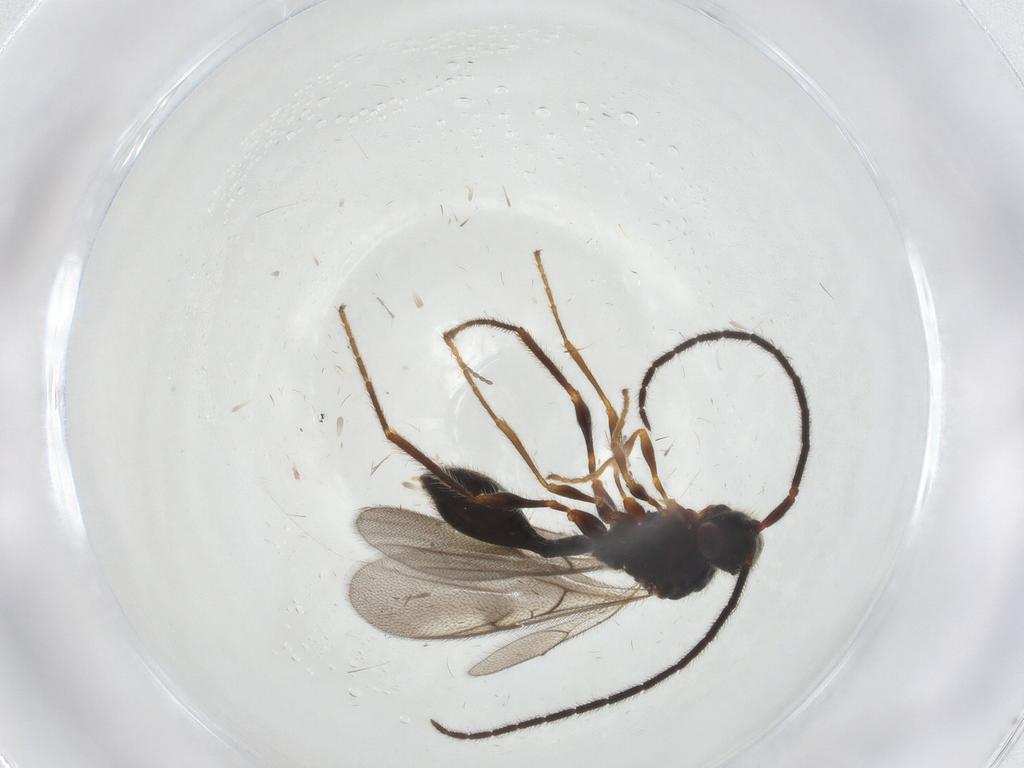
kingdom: Animalia
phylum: Arthropoda
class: Insecta
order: Hymenoptera
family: Diapriidae
